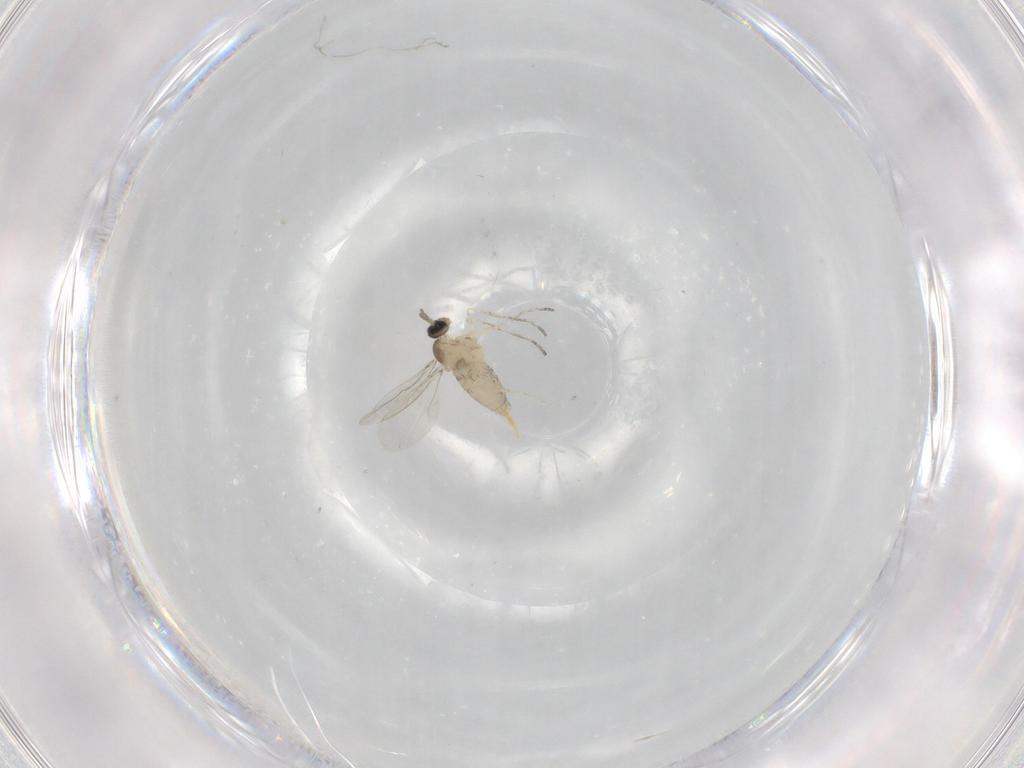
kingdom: Animalia
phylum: Arthropoda
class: Insecta
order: Diptera
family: Cecidomyiidae
